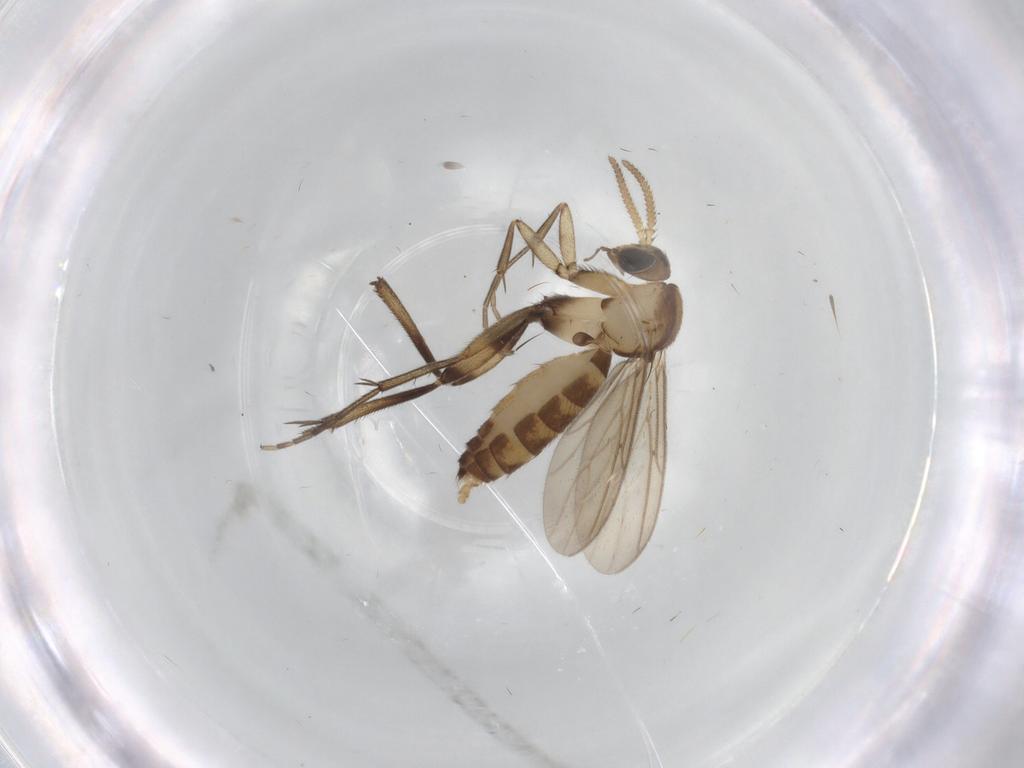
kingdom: Animalia
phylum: Arthropoda
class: Insecta
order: Diptera
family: Mycetophilidae
